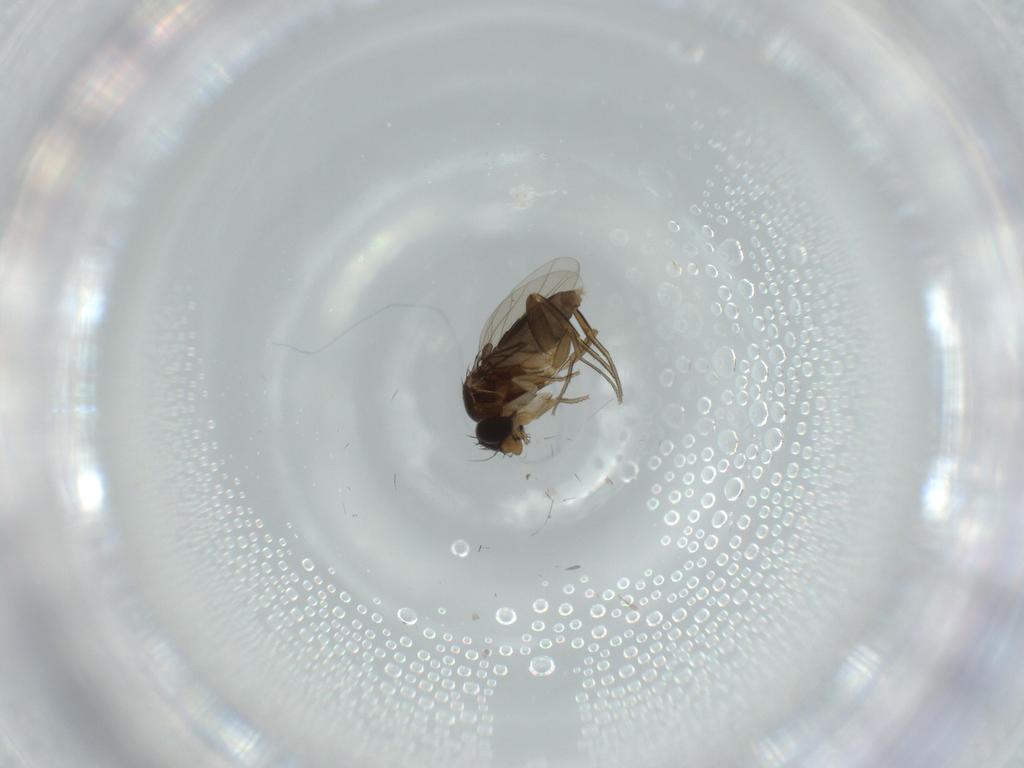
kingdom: Animalia
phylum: Arthropoda
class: Insecta
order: Diptera
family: Phoridae
